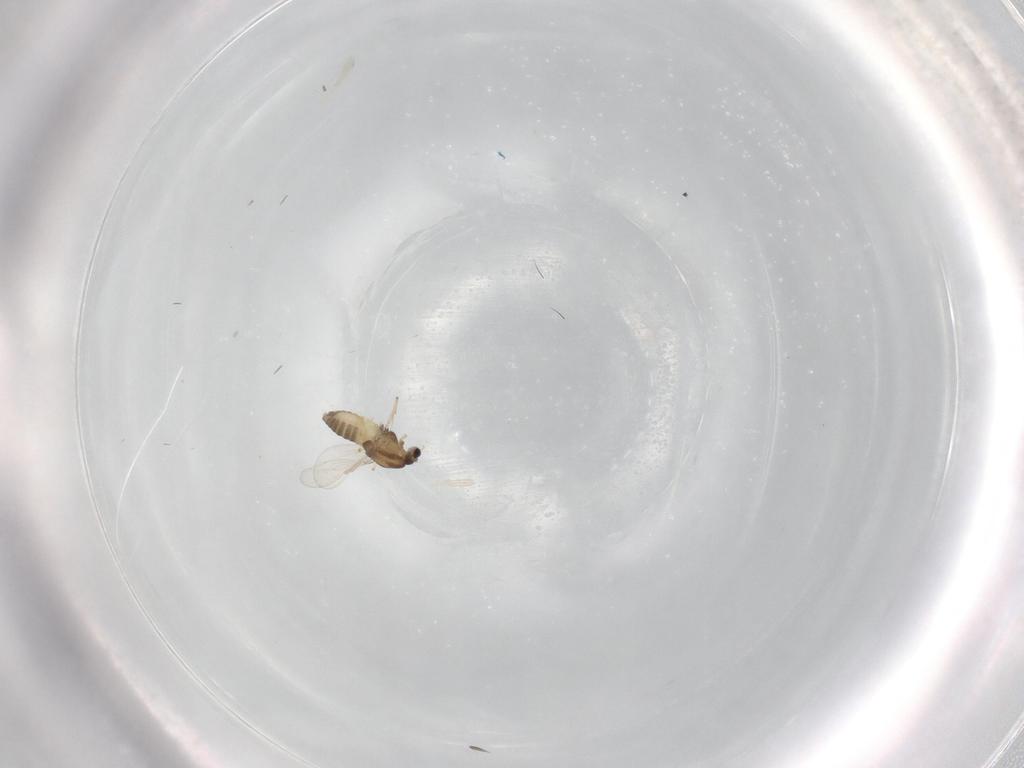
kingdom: Animalia
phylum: Arthropoda
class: Insecta
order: Diptera
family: Chironomidae
